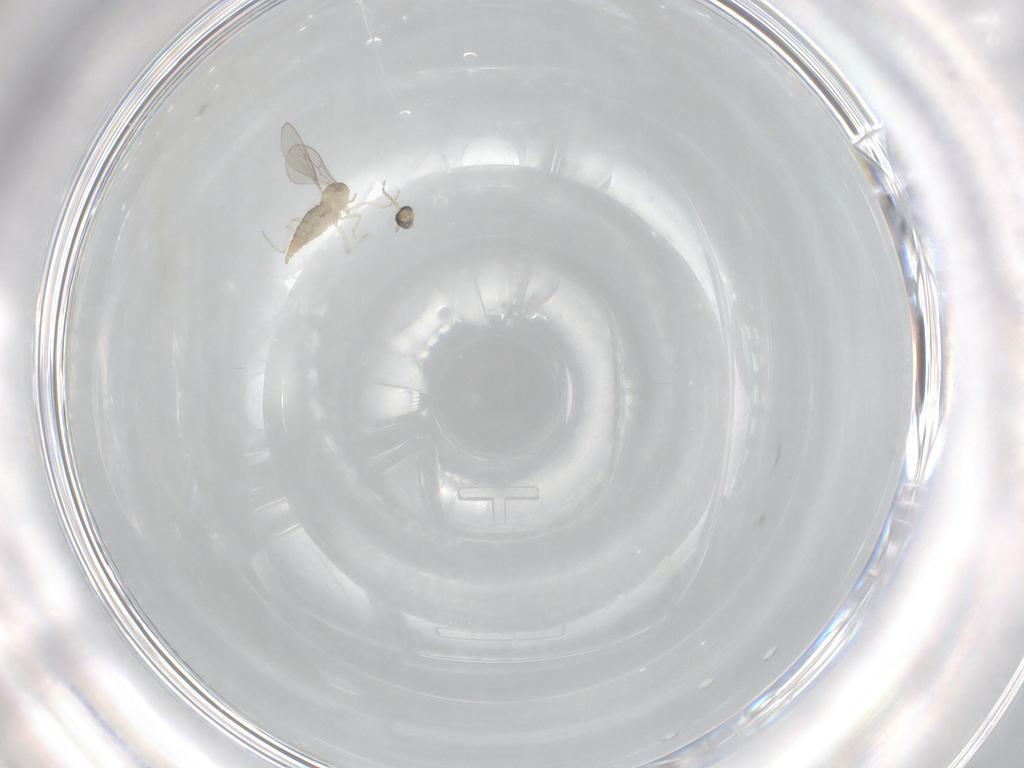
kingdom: Animalia
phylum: Arthropoda
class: Insecta
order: Diptera
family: Cecidomyiidae
